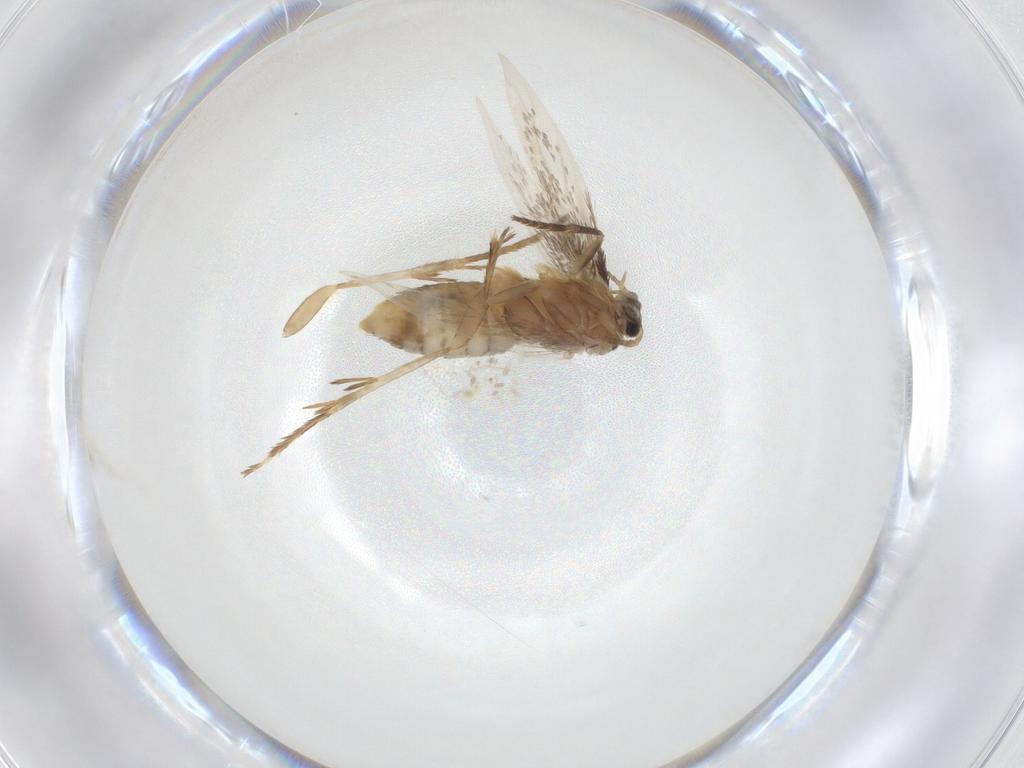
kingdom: Animalia
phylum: Arthropoda
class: Insecta
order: Lepidoptera
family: Nepticulidae
